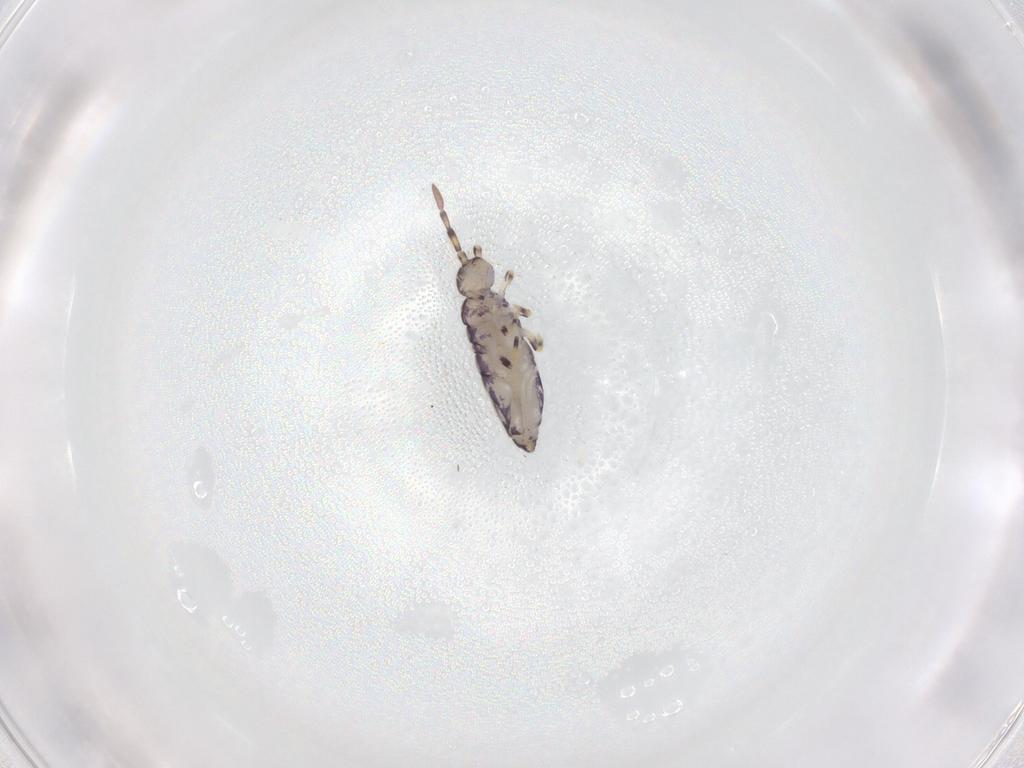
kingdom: Animalia
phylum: Arthropoda
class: Collembola
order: Entomobryomorpha
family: Entomobryidae
